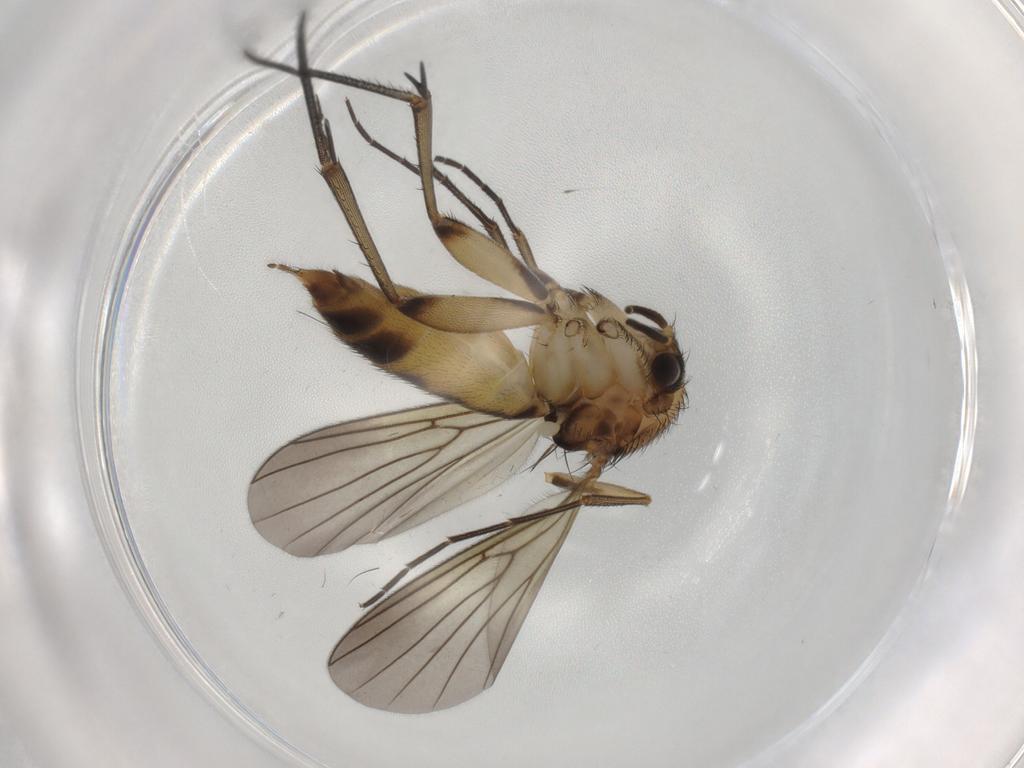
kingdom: Animalia
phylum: Arthropoda
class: Insecta
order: Diptera
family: Mycetophilidae
